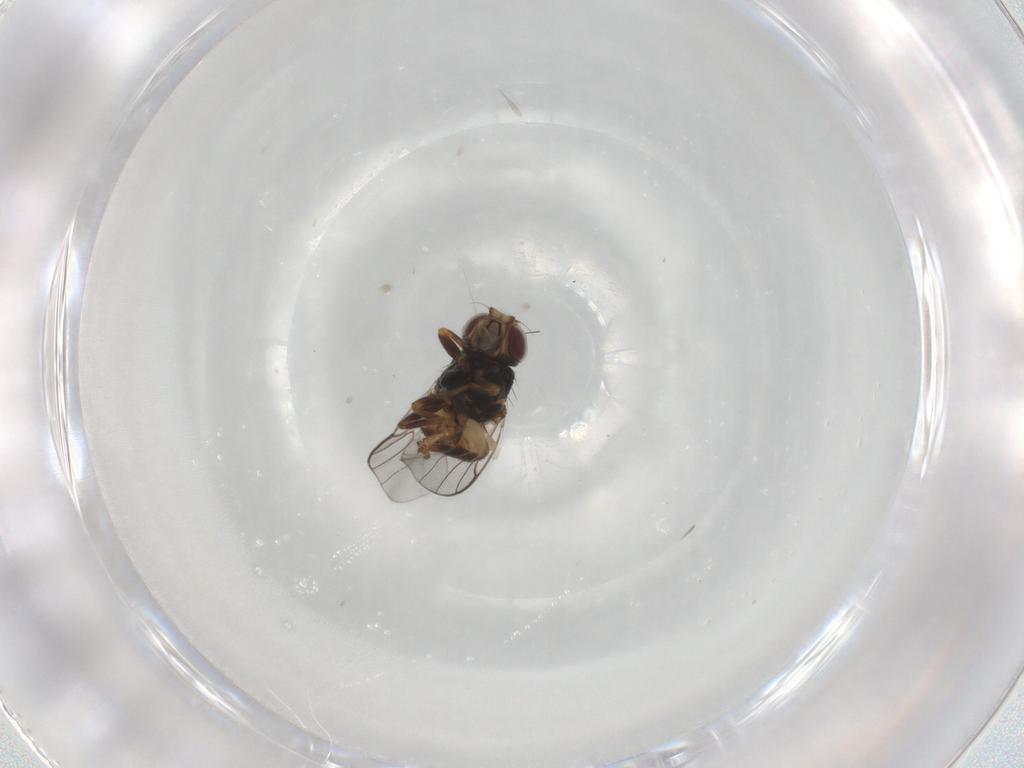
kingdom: Animalia
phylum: Arthropoda
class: Insecta
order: Diptera
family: Chloropidae
